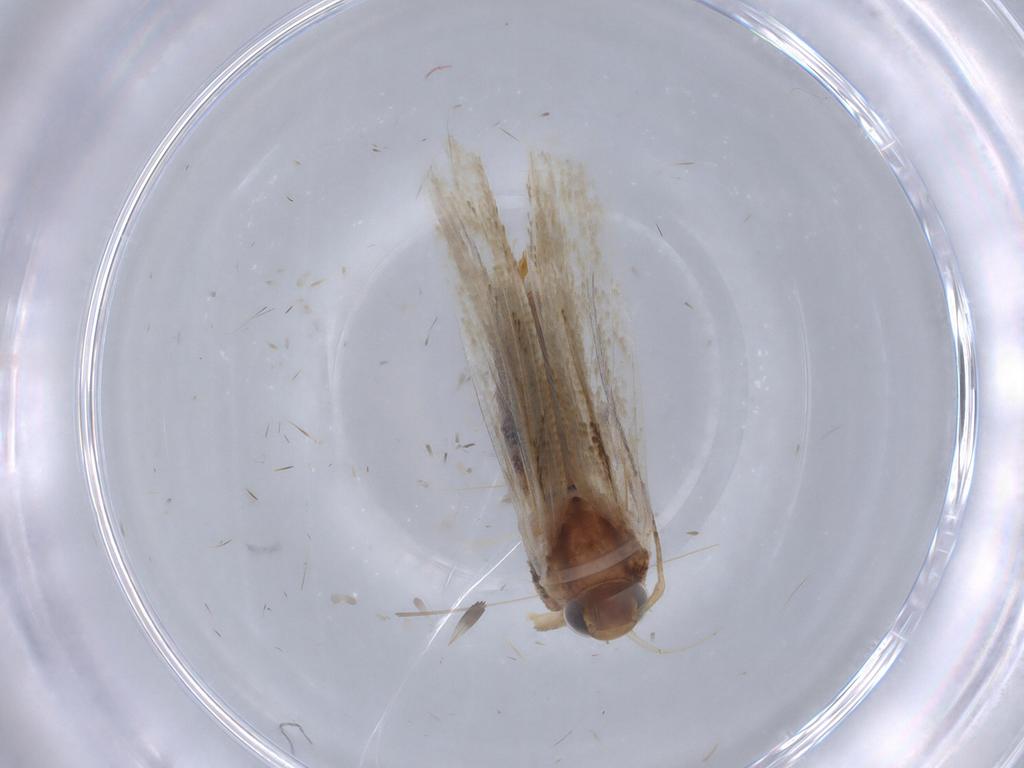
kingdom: Animalia
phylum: Arthropoda
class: Insecta
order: Lepidoptera
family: Gelechiidae
